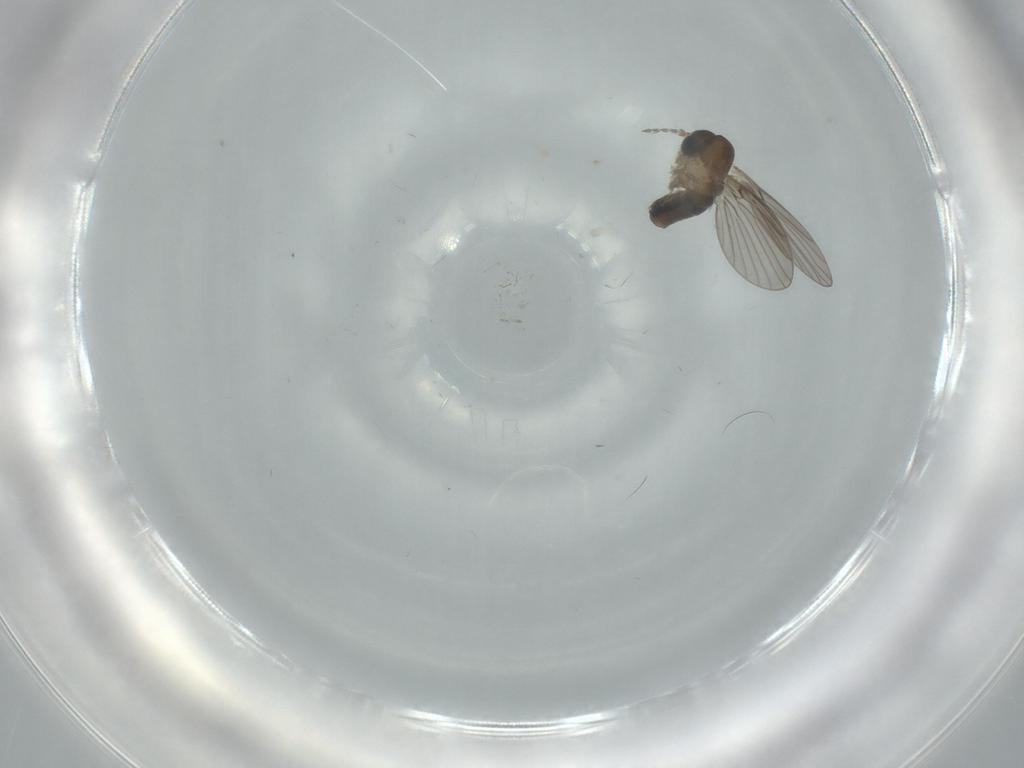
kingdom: Animalia
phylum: Arthropoda
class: Insecta
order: Diptera
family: Psychodidae
